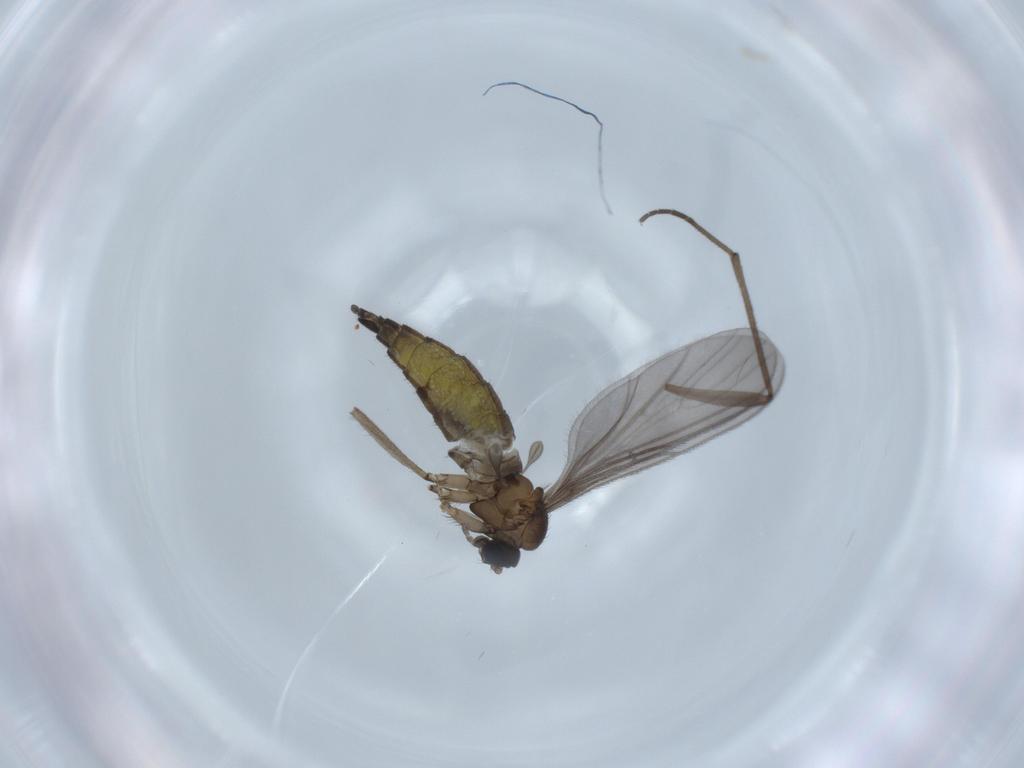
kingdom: Animalia
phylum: Arthropoda
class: Insecta
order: Diptera
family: Sciaridae
